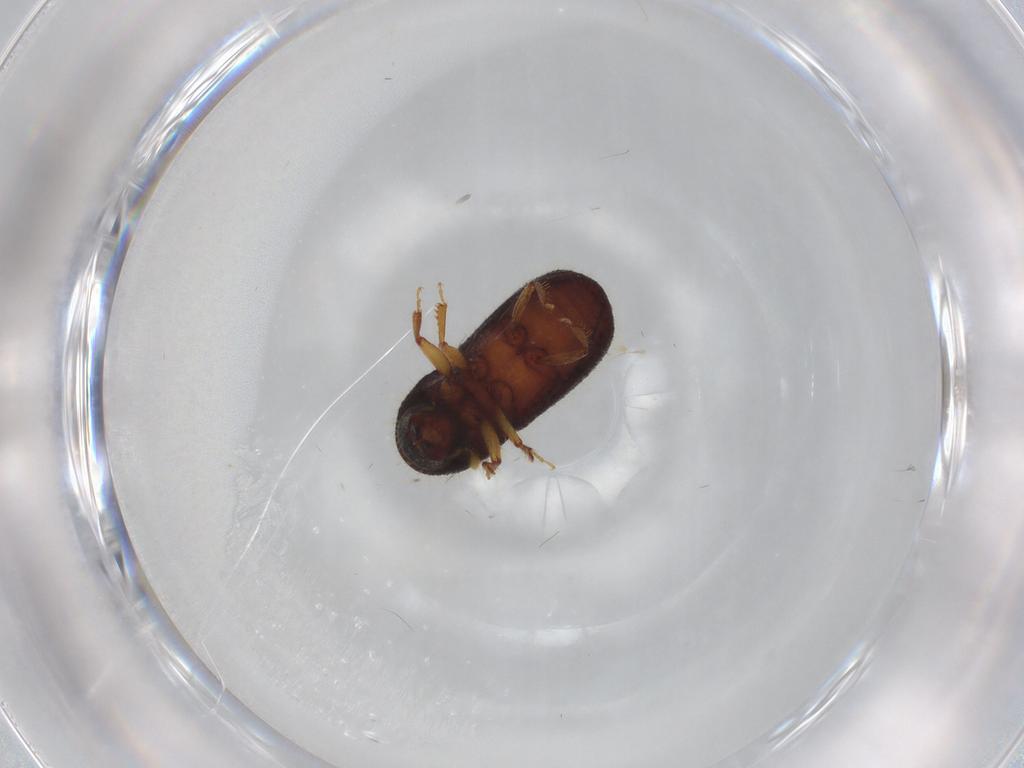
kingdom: Animalia
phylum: Arthropoda
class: Insecta
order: Coleoptera
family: Curculionidae
